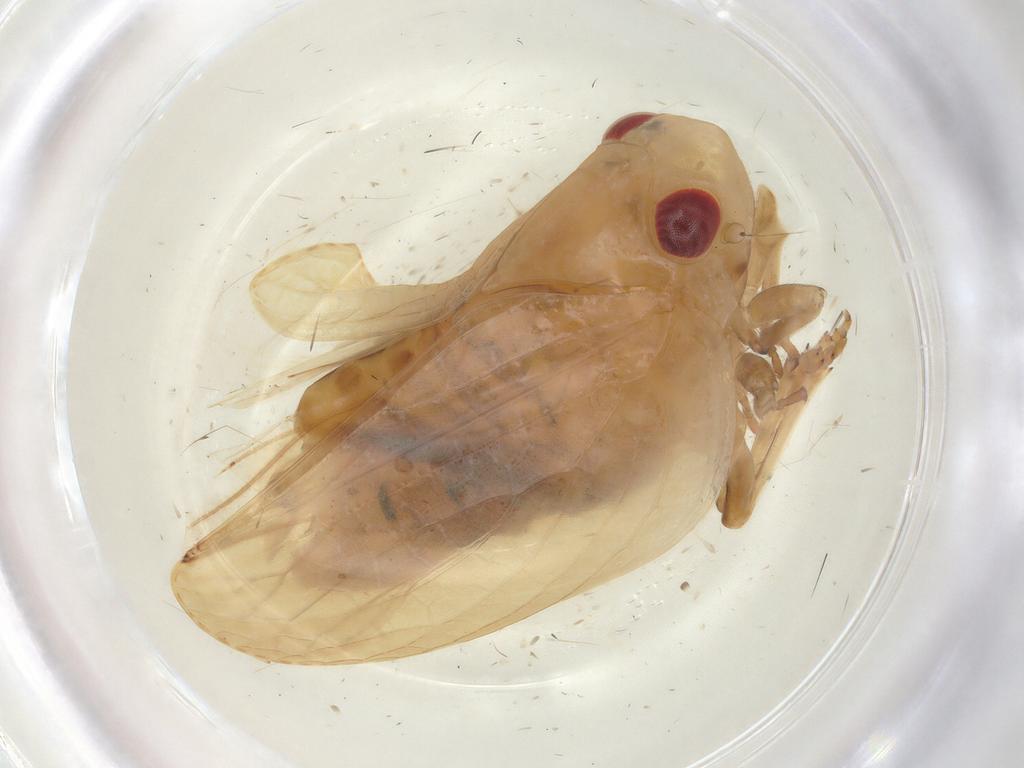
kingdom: Animalia
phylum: Arthropoda
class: Insecta
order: Hemiptera
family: Acanaloniidae
